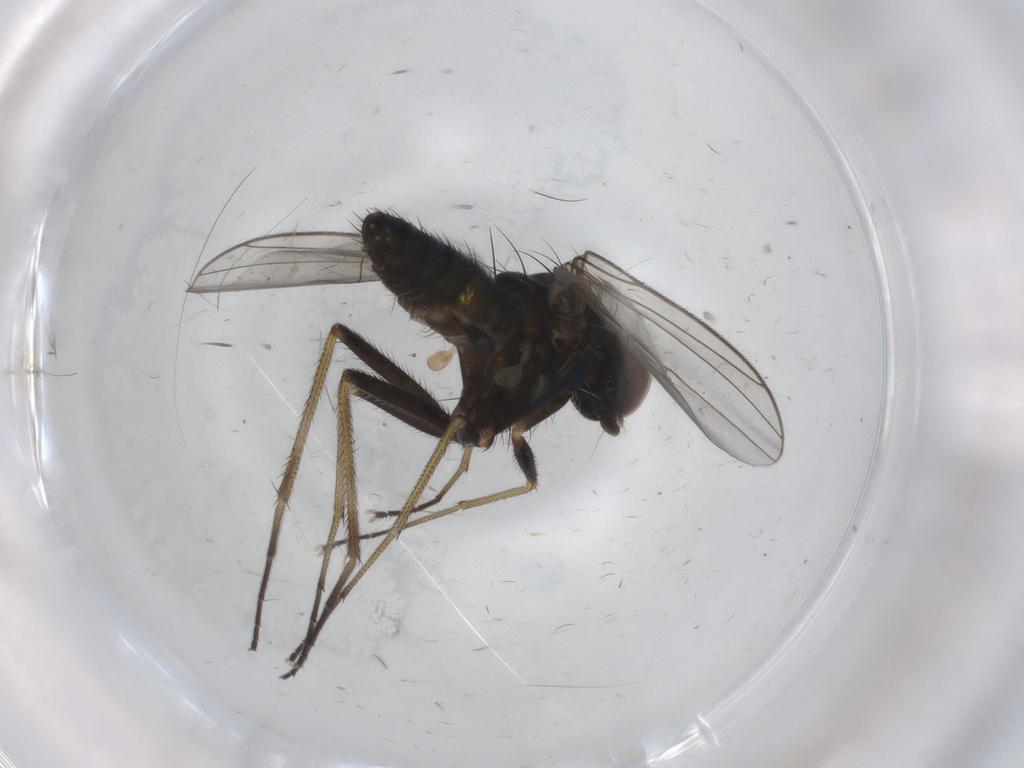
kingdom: Animalia
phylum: Arthropoda
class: Insecta
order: Diptera
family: Dolichopodidae
